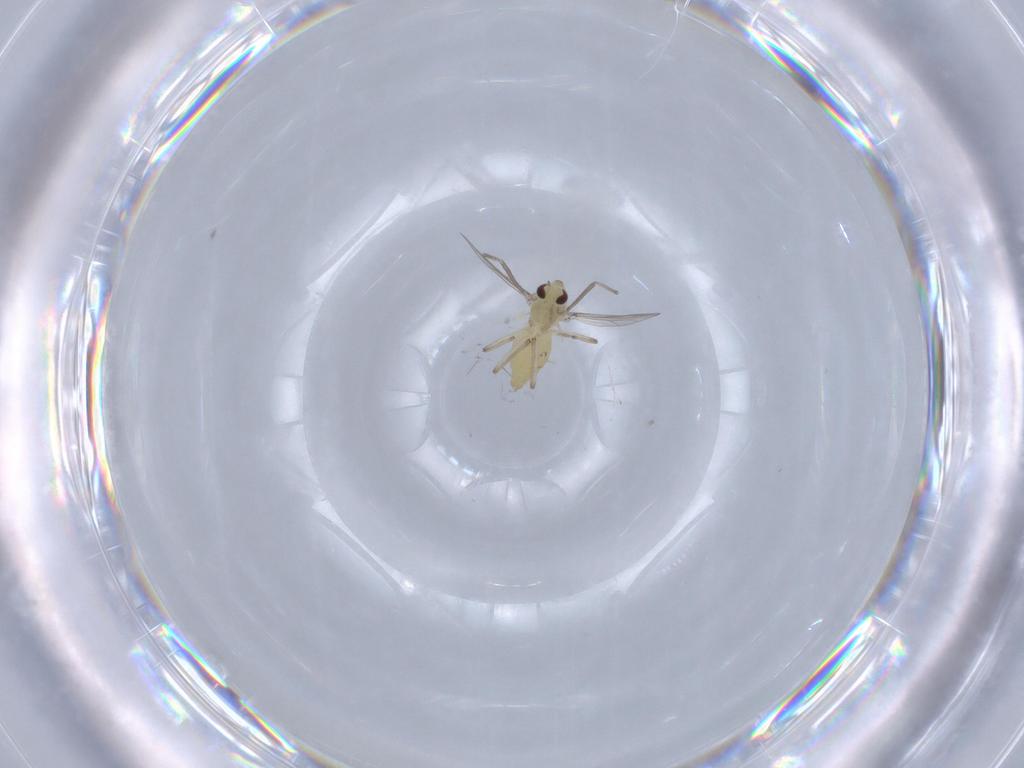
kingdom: Animalia
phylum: Arthropoda
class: Insecta
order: Diptera
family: Chironomidae
